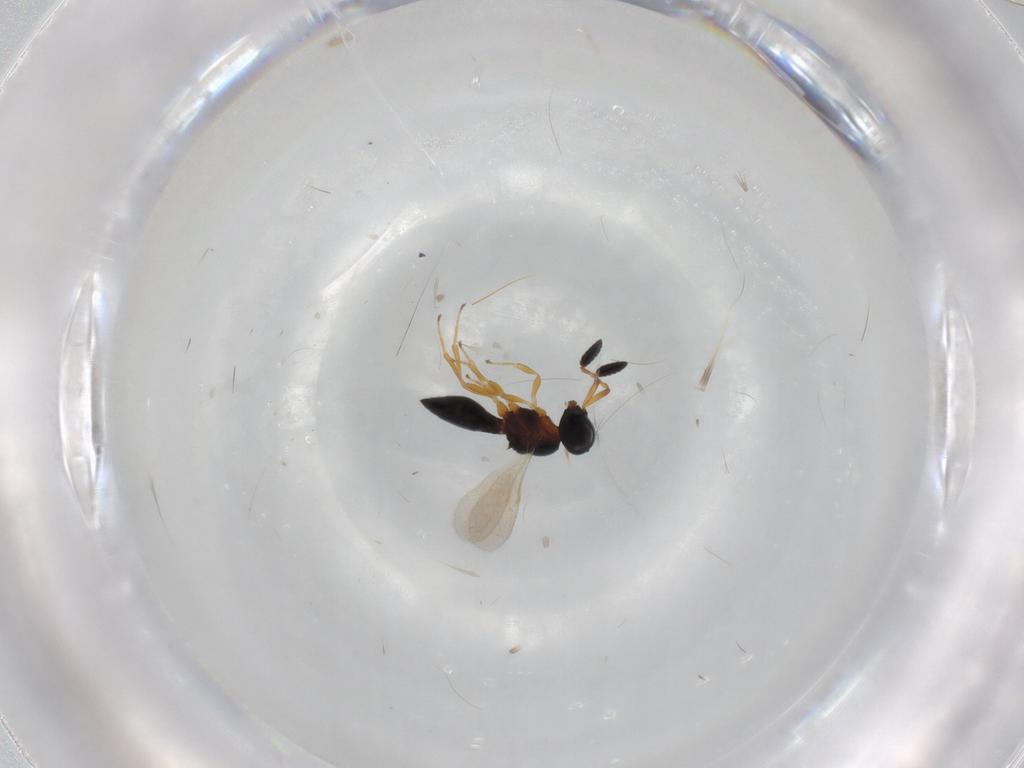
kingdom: Animalia
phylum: Arthropoda
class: Insecta
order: Hymenoptera
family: Scelionidae
